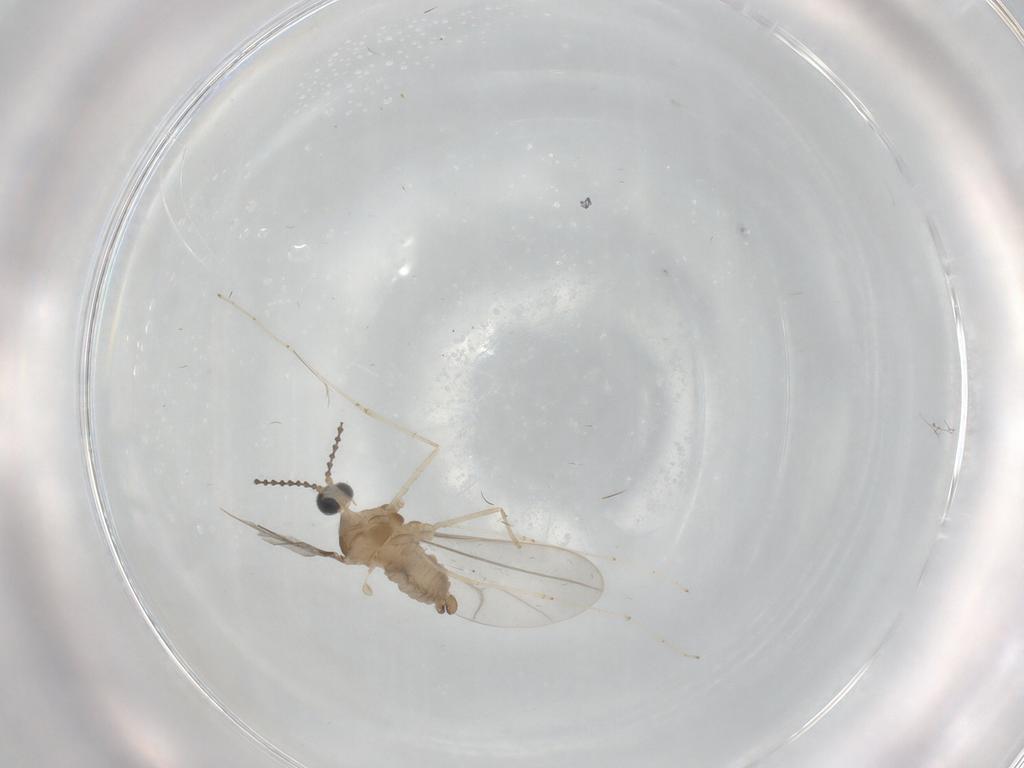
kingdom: Animalia
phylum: Arthropoda
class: Insecta
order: Diptera
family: Cecidomyiidae
